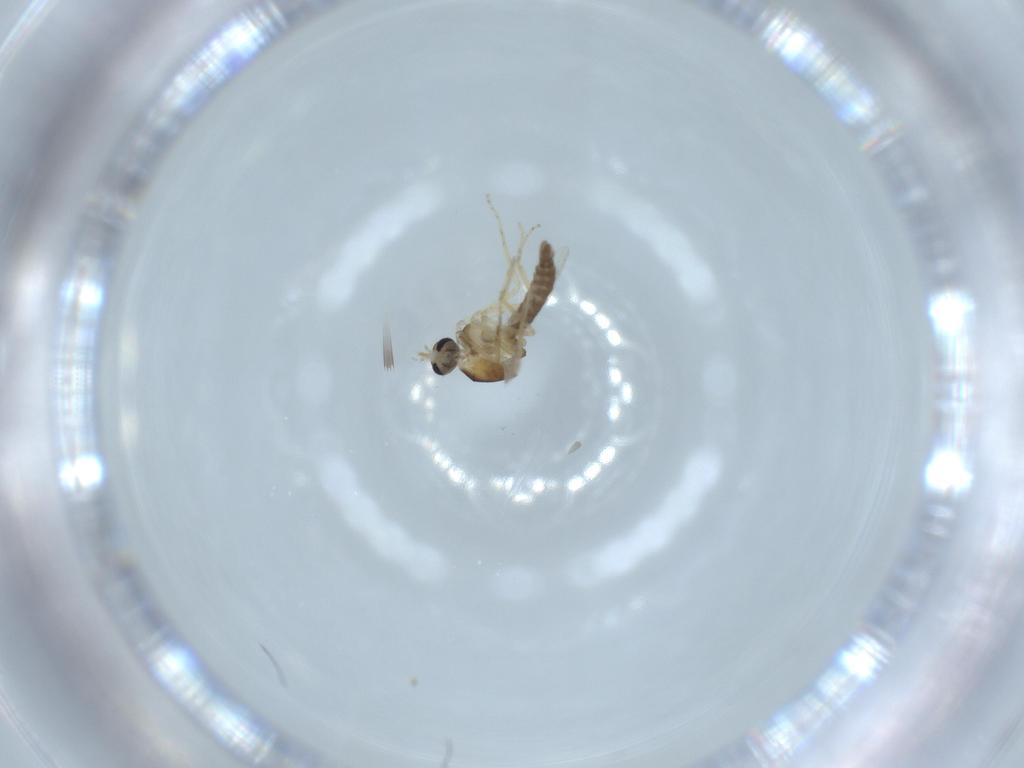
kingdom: Animalia
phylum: Arthropoda
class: Insecta
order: Diptera
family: Ceratopogonidae
